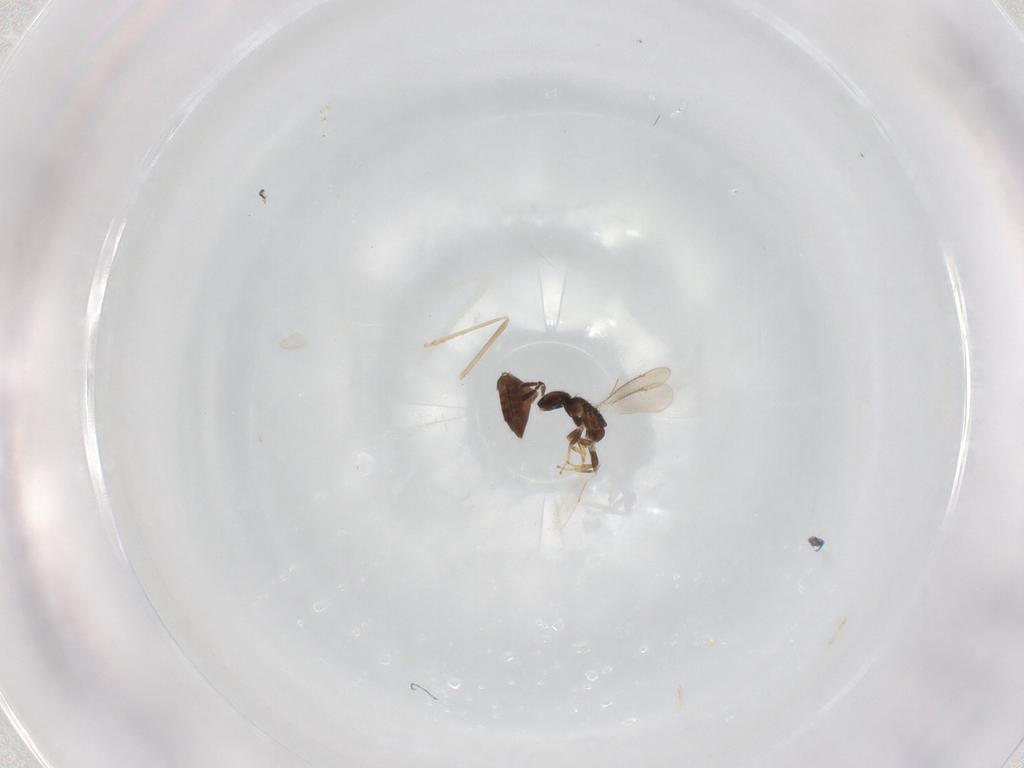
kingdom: Animalia
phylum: Arthropoda
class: Insecta
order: Hymenoptera
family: Aphelinidae
